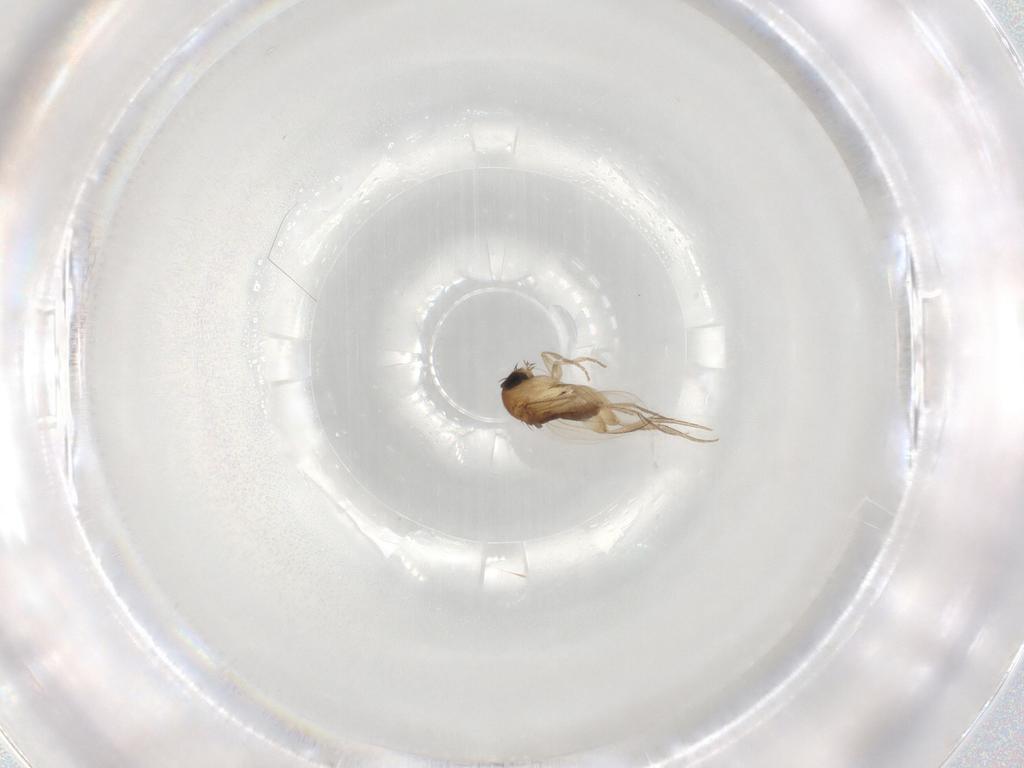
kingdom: Animalia
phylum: Arthropoda
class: Insecta
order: Diptera
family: Phoridae
